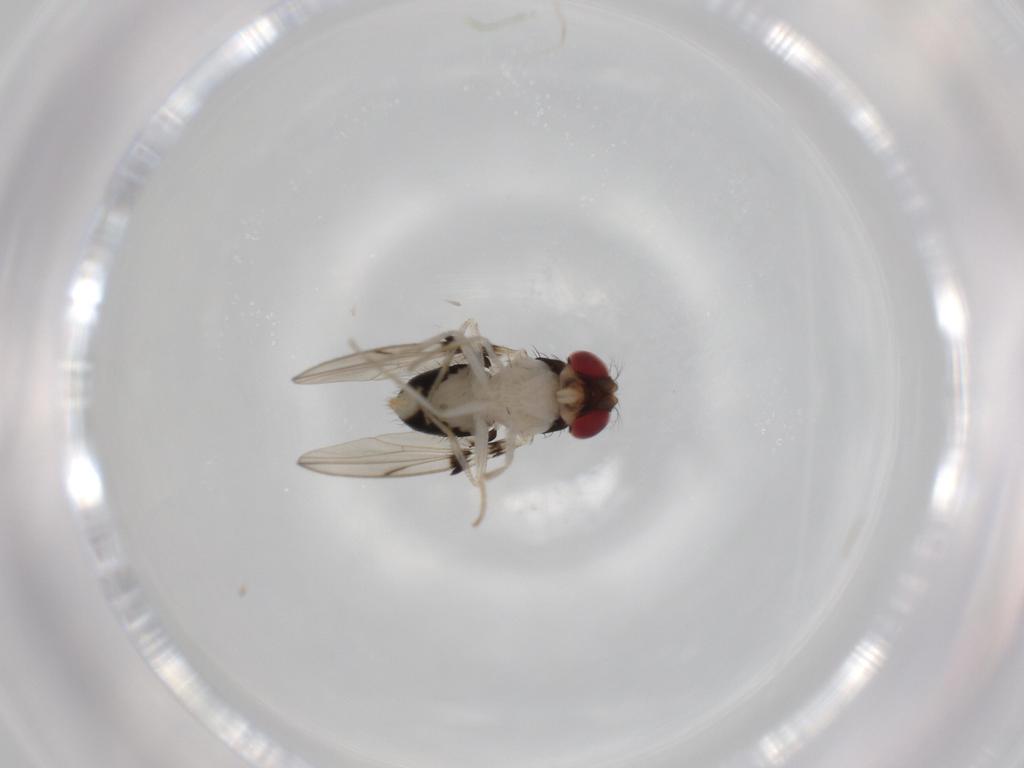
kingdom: Animalia
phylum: Arthropoda
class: Insecta
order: Diptera
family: Drosophilidae
